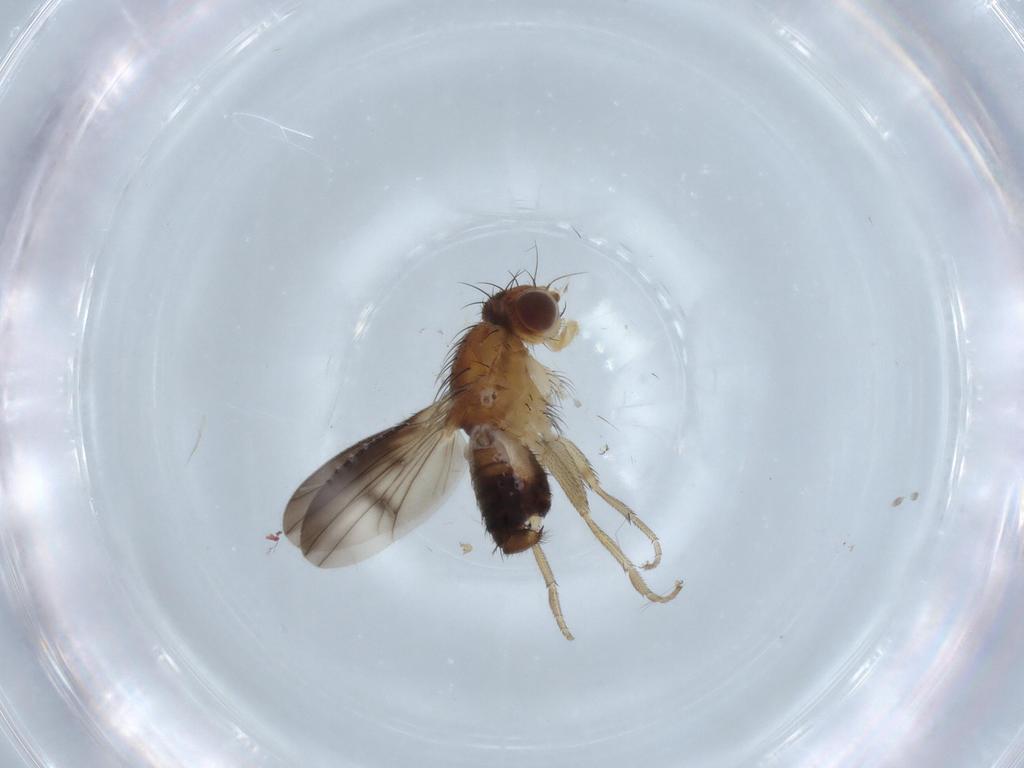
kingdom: Animalia
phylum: Arthropoda
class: Insecta
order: Diptera
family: Heleomyzidae
